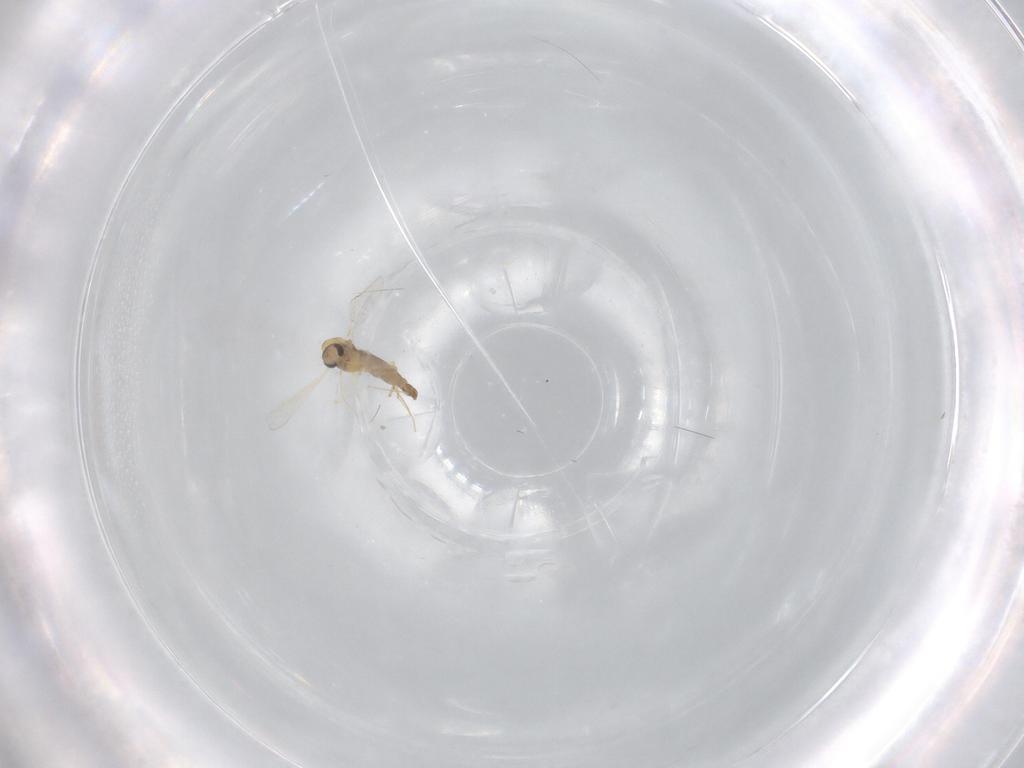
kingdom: Animalia
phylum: Arthropoda
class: Insecta
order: Diptera
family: Chironomidae
